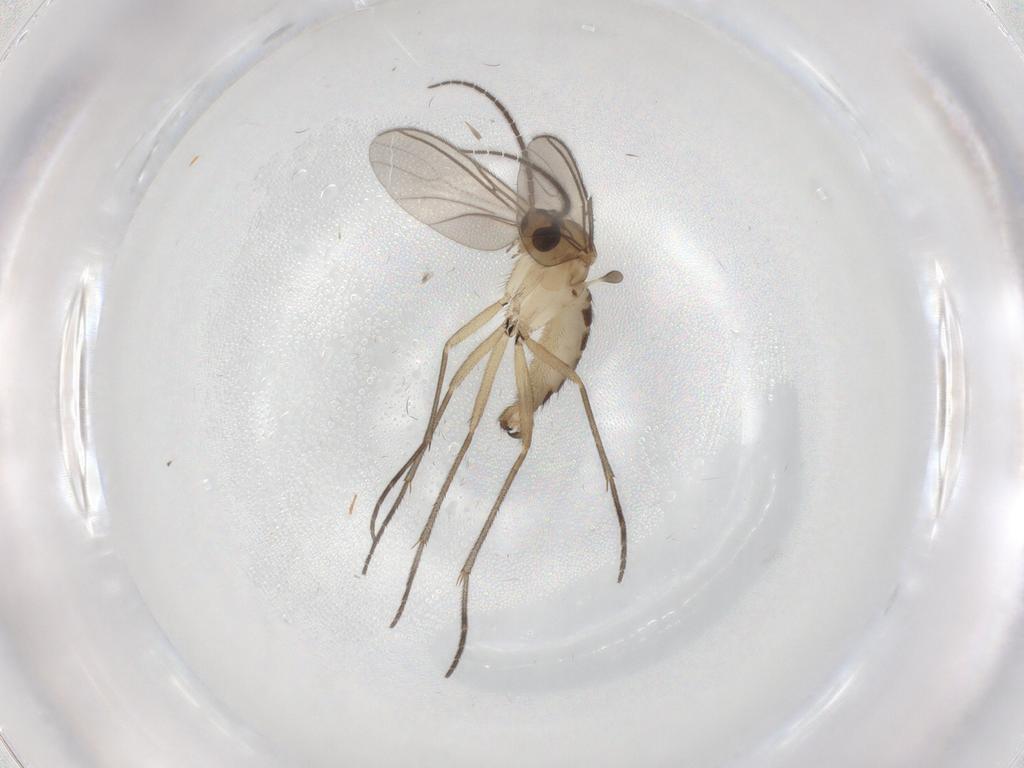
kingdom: Animalia
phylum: Arthropoda
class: Insecta
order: Diptera
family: Sciaridae
